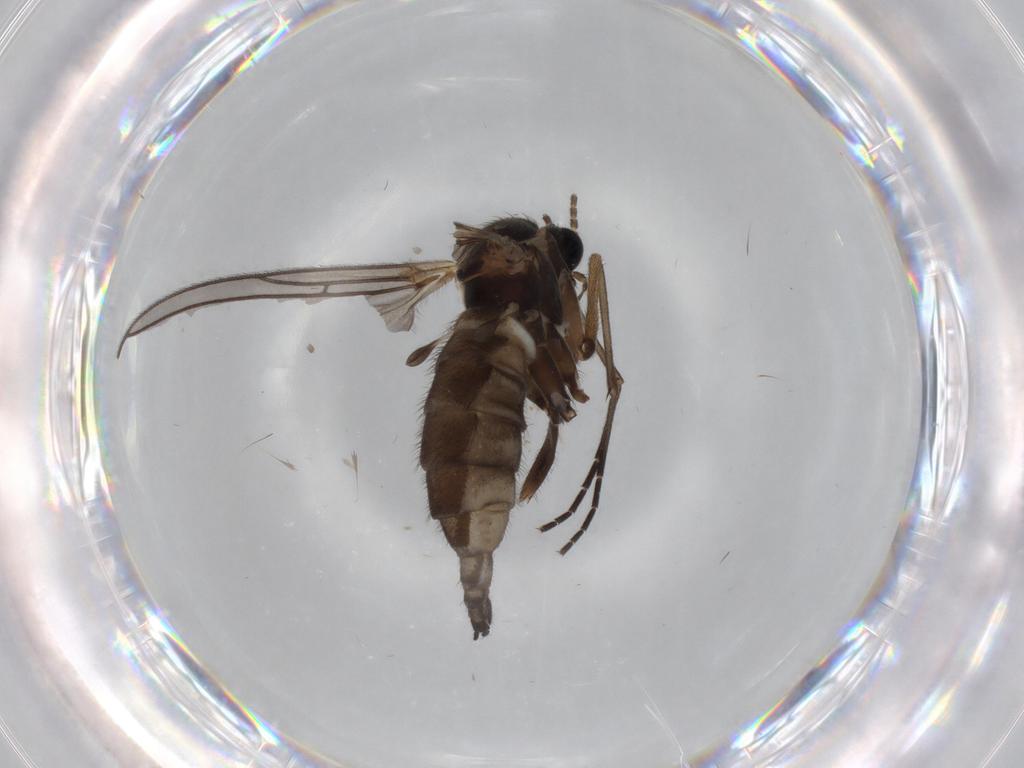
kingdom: Animalia
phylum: Arthropoda
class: Insecta
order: Diptera
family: Sciaridae
